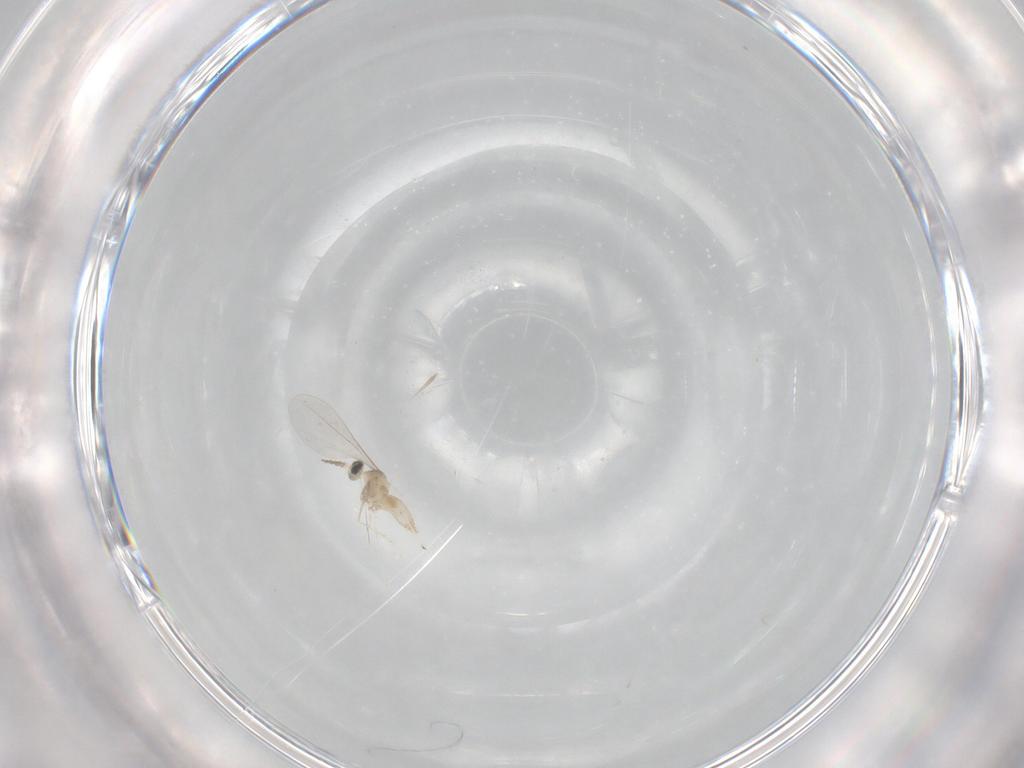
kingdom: Animalia
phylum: Arthropoda
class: Insecta
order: Diptera
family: Cecidomyiidae
